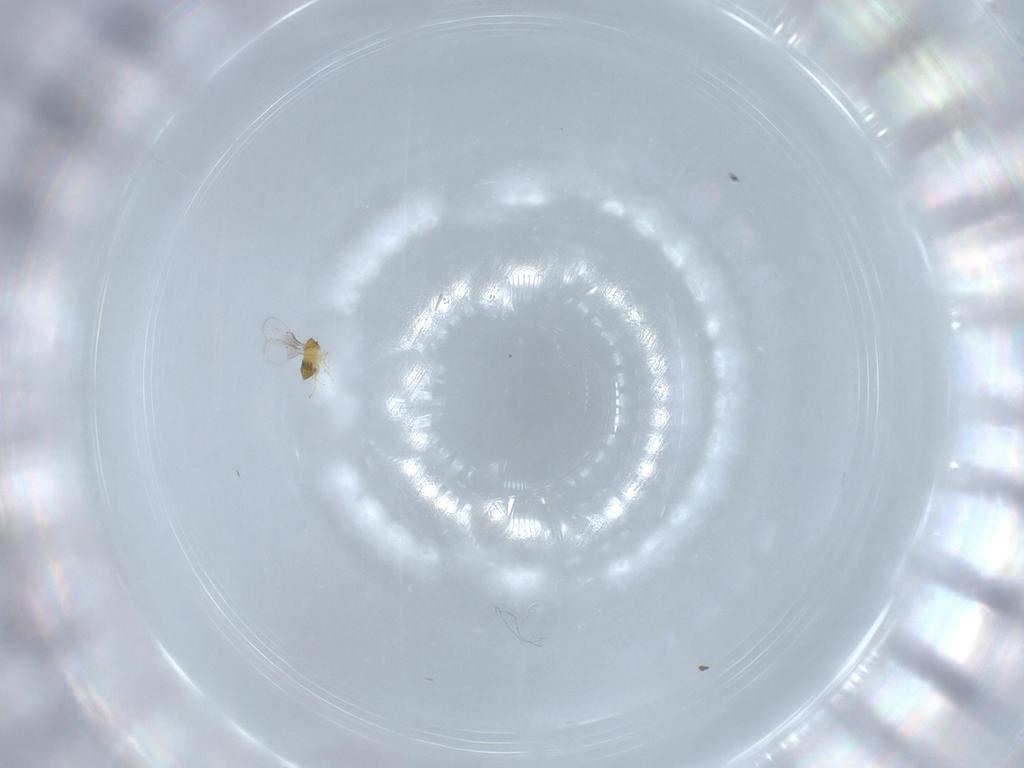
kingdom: Animalia
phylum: Arthropoda
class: Insecta
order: Hymenoptera
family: Trichogrammatidae
